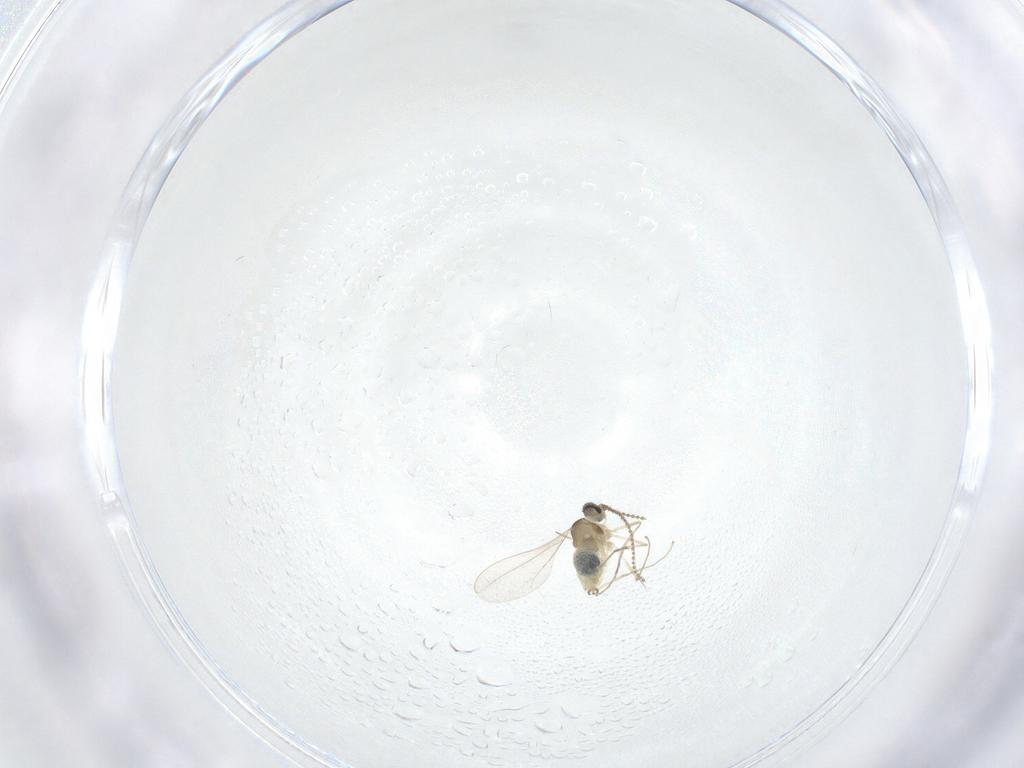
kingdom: Animalia
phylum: Arthropoda
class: Insecta
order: Diptera
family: Cecidomyiidae
